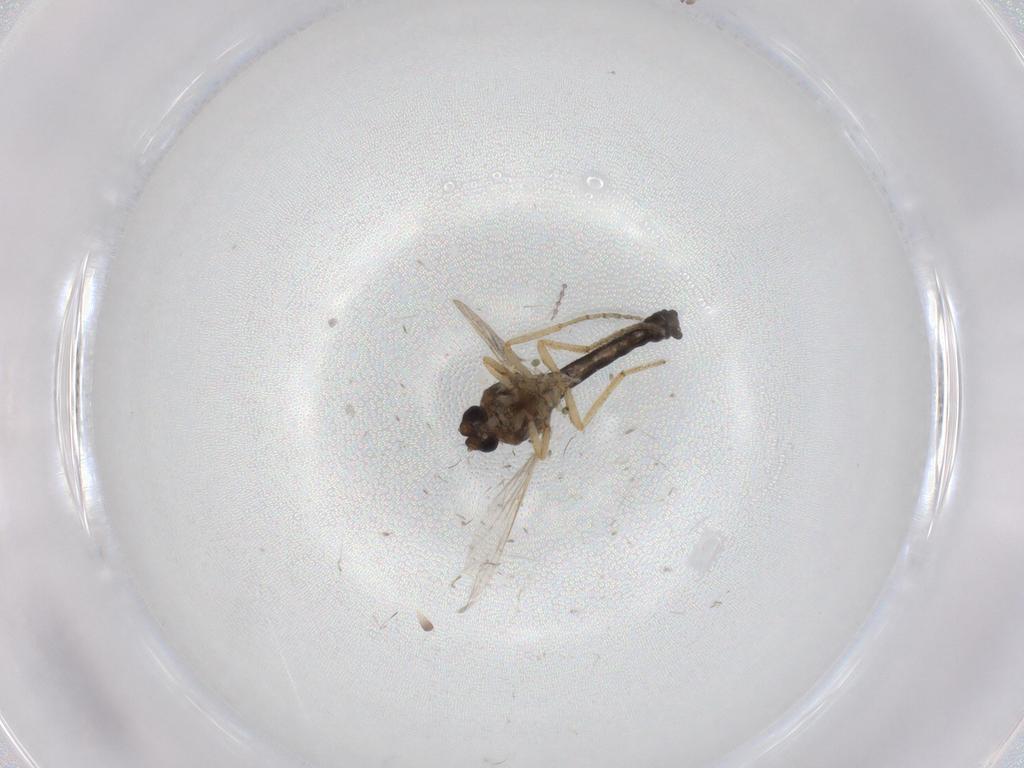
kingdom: Animalia
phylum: Arthropoda
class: Insecta
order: Diptera
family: Ceratopogonidae
